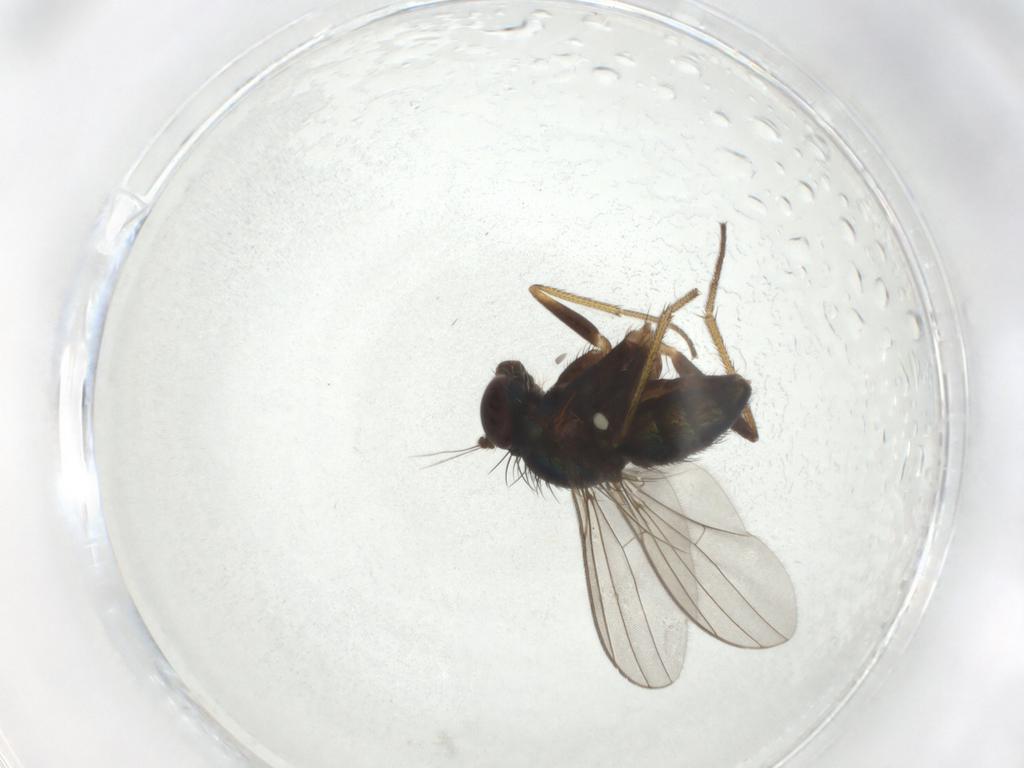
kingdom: Animalia
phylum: Arthropoda
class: Insecta
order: Diptera
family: Dolichopodidae
